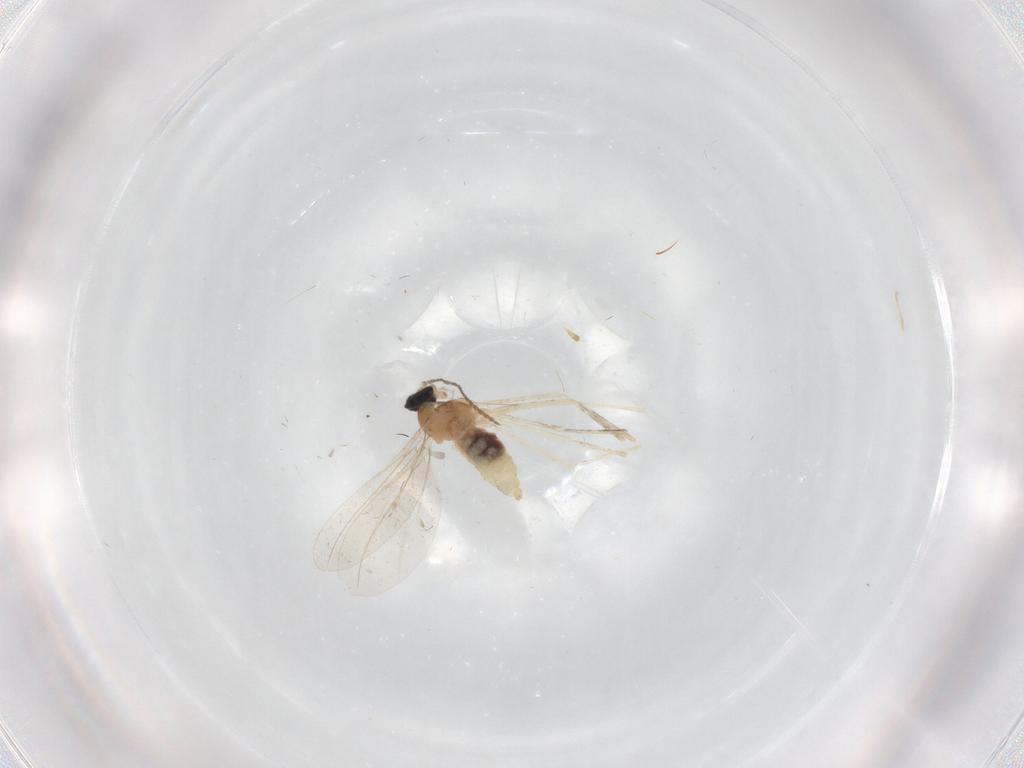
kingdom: Animalia
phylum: Arthropoda
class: Insecta
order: Diptera
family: Cecidomyiidae
